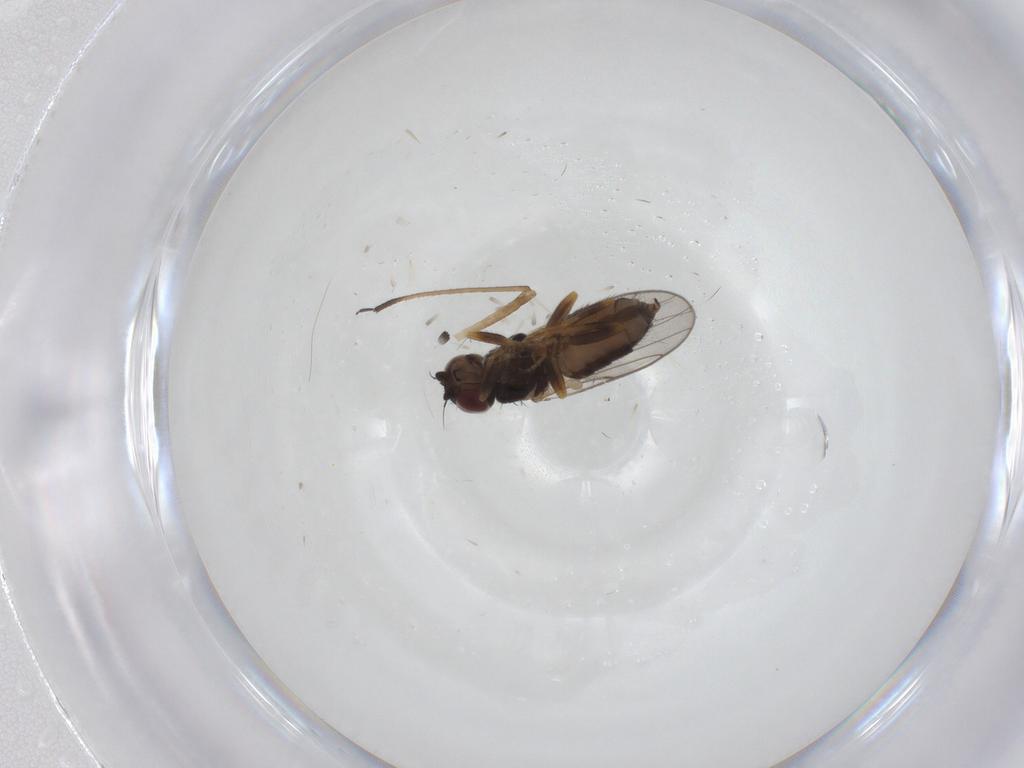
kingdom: Animalia
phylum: Arthropoda
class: Insecta
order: Diptera
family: Chloropidae
